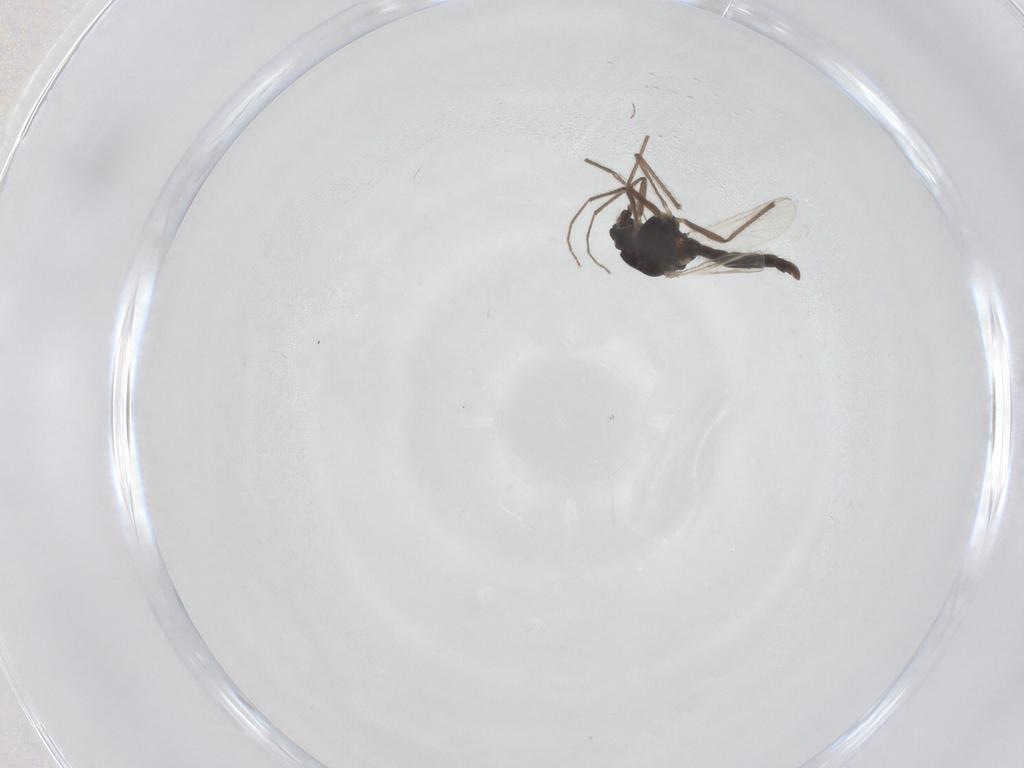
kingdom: Animalia
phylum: Arthropoda
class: Insecta
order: Diptera
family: Chironomidae
